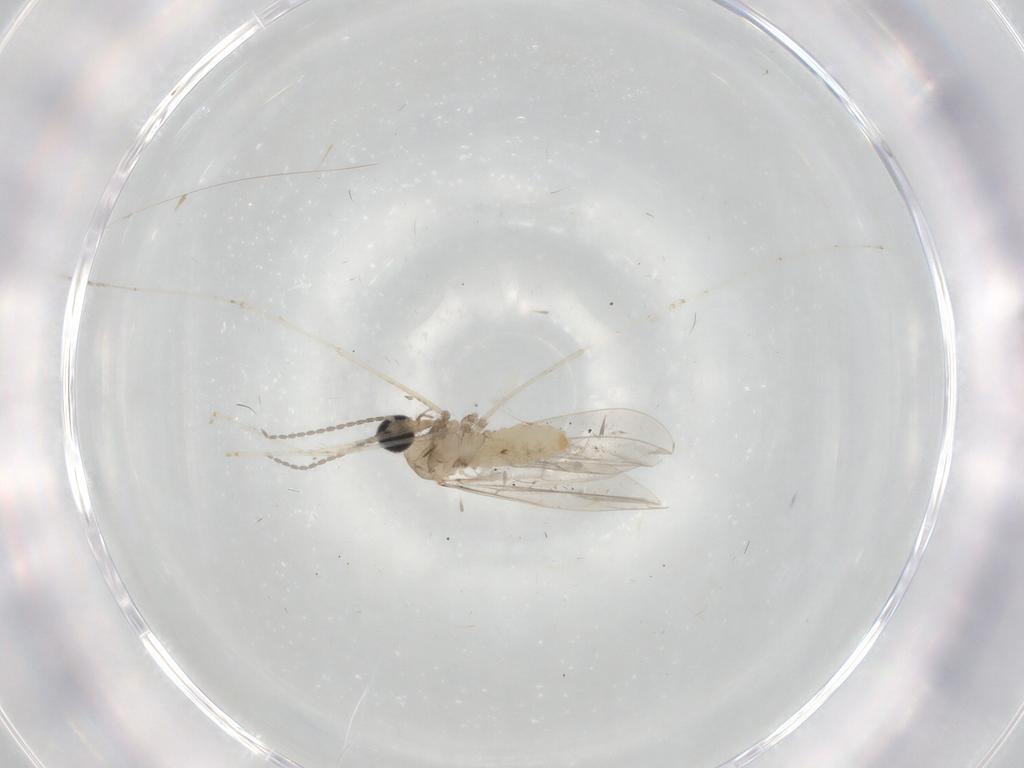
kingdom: Animalia
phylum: Arthropoda
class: Insecta
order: Diptera
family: Cecidomyiidae
